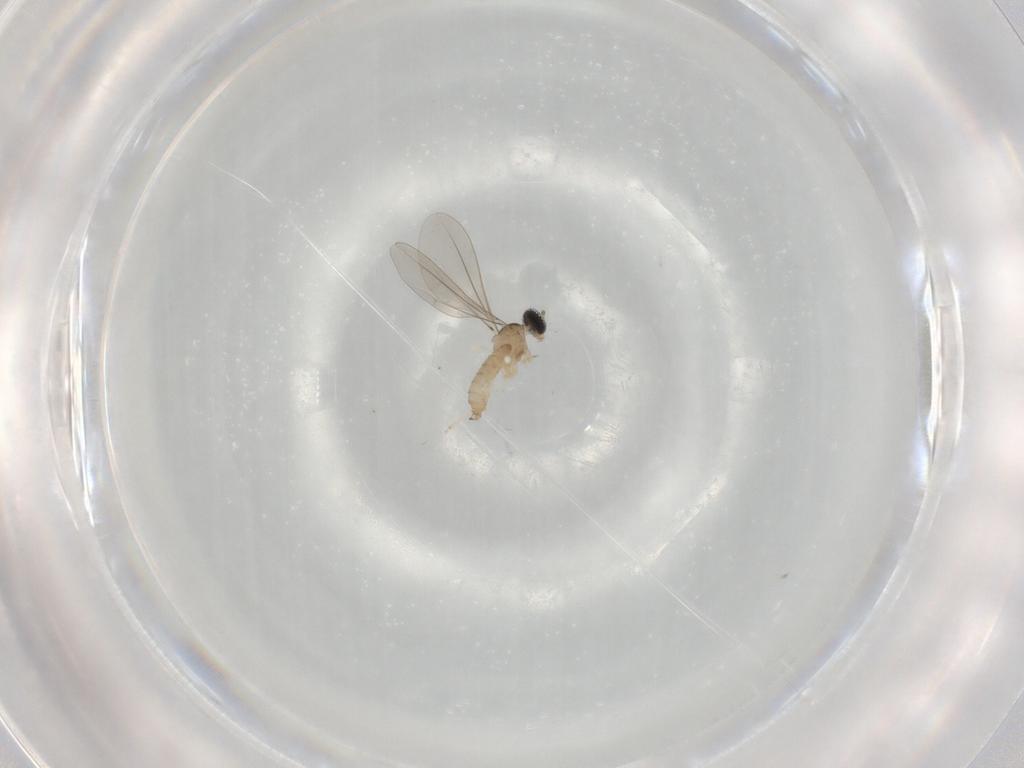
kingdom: Animalia
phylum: Arthropoda
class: Insecta
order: Diptera
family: Cecidomyiidae
